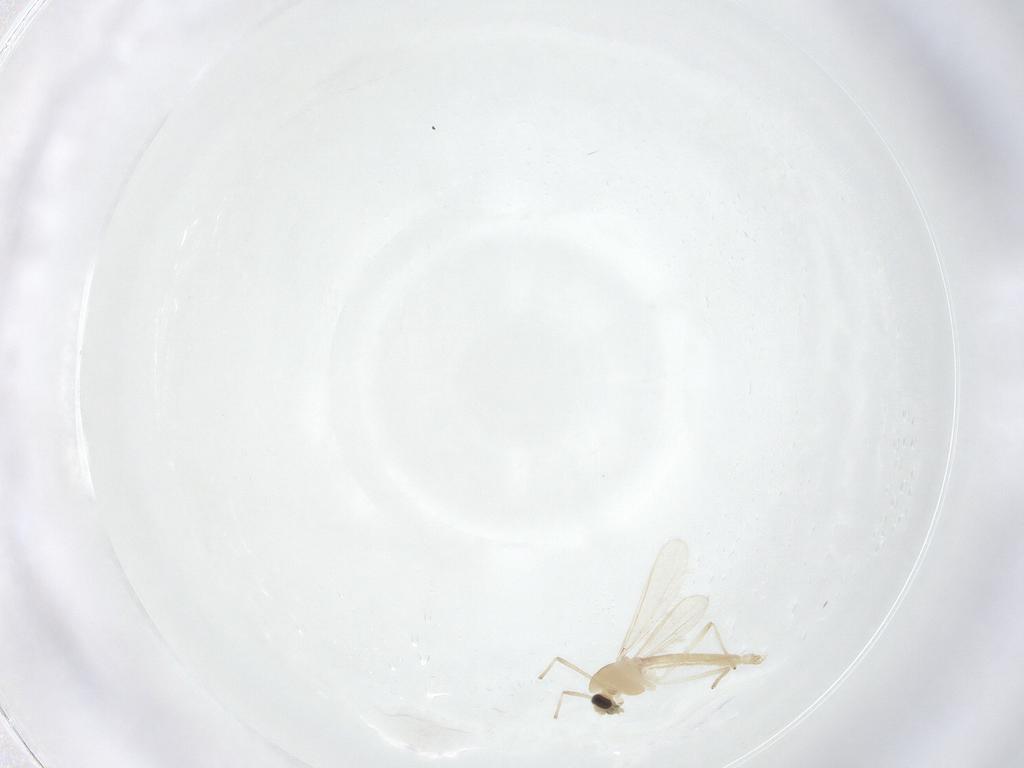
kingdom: Animalia
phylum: Arthropoda
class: Insecta
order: Diptera
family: Chironomidae
